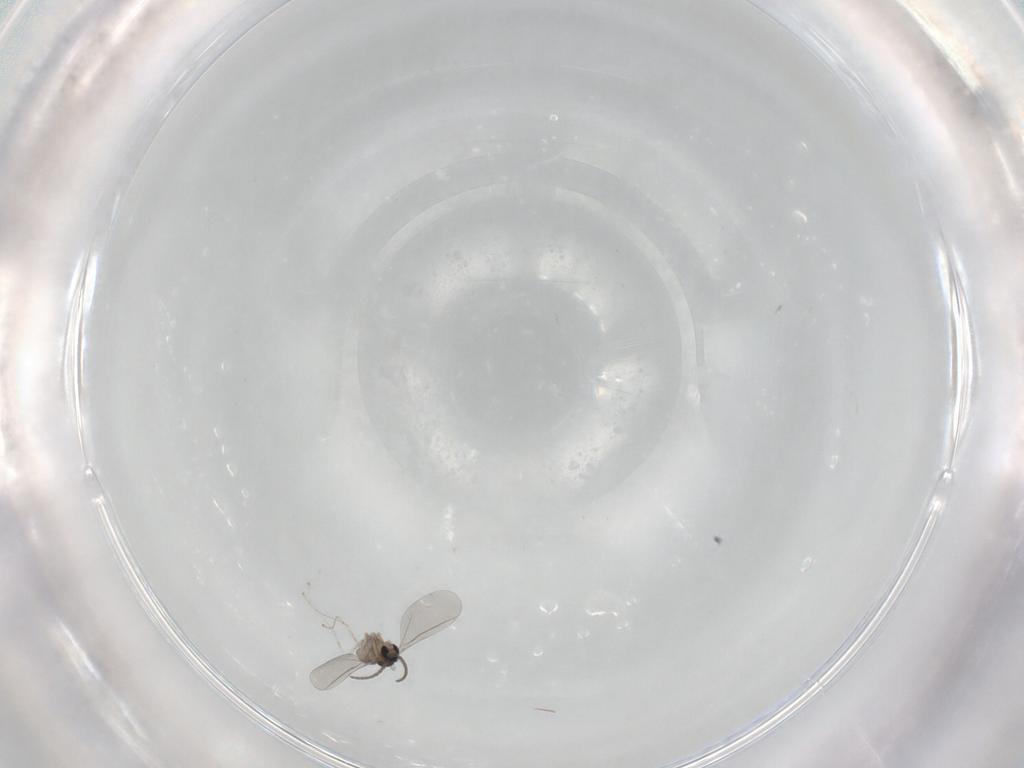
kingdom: Animalia
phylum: Arthropoda
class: Insecta
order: Diptera
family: Cecidomyiidae
